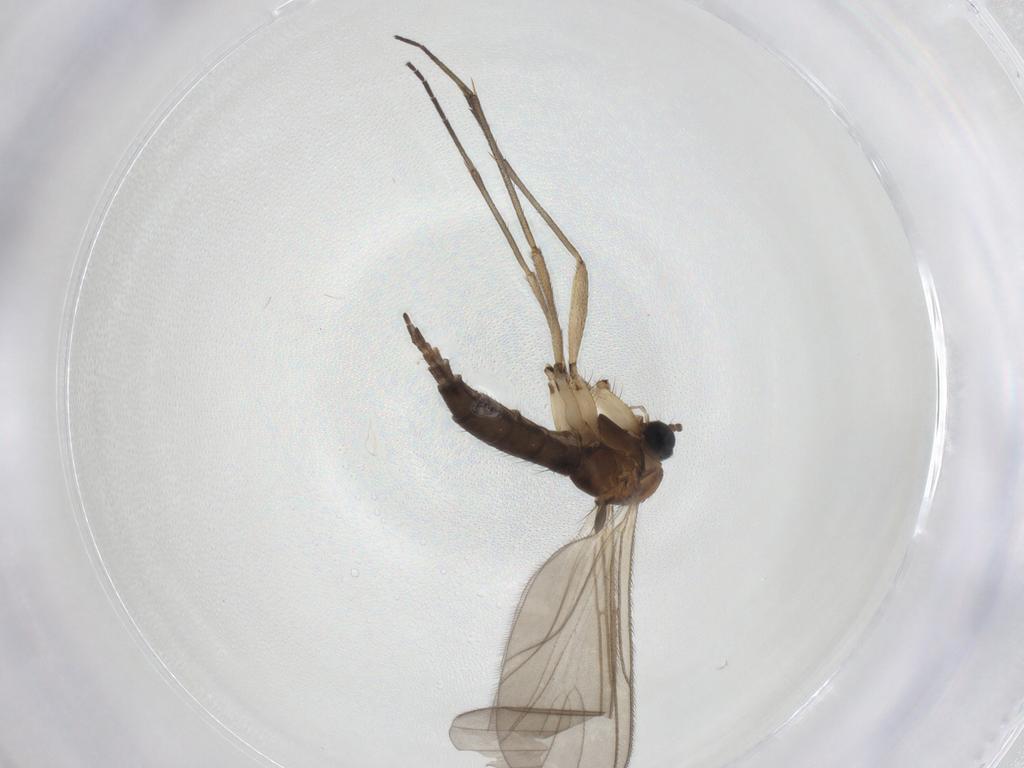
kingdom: Animalia
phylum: Arthropoda
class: Insecta
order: Diptera
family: Sciaridae
